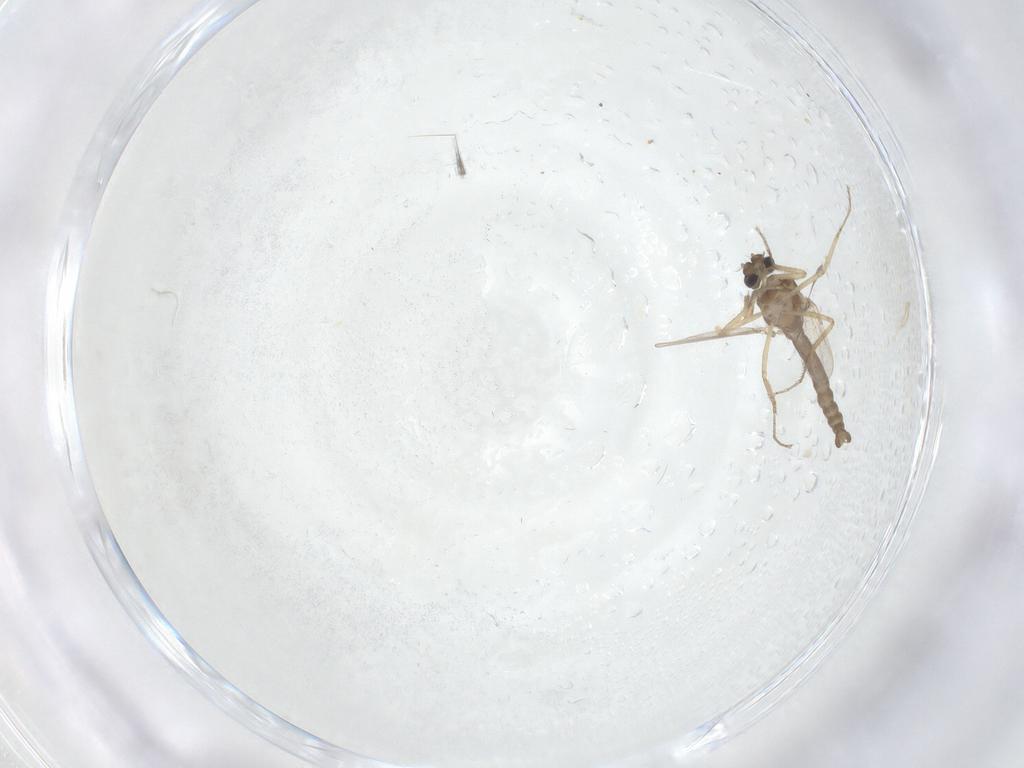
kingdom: Animalia
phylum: Arthropoda
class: Insecta
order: Diptera
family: Ceratopogonidae
